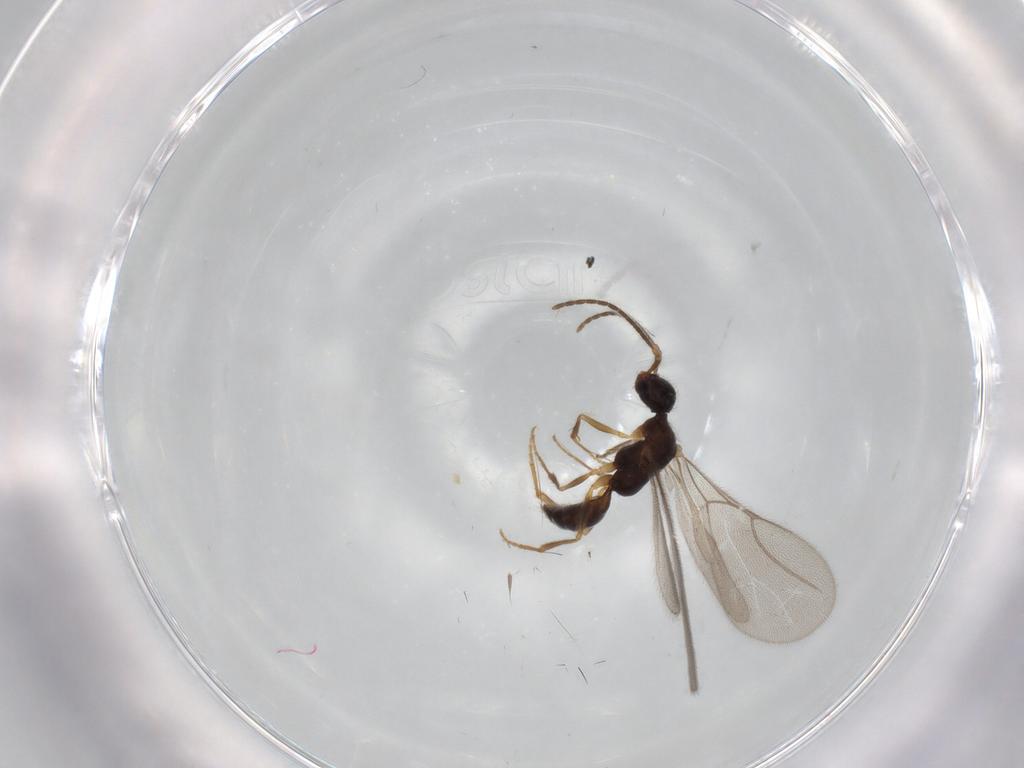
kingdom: Animalia
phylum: Arthropoda
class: Insecta
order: Hymenoptera
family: Bethylidae
